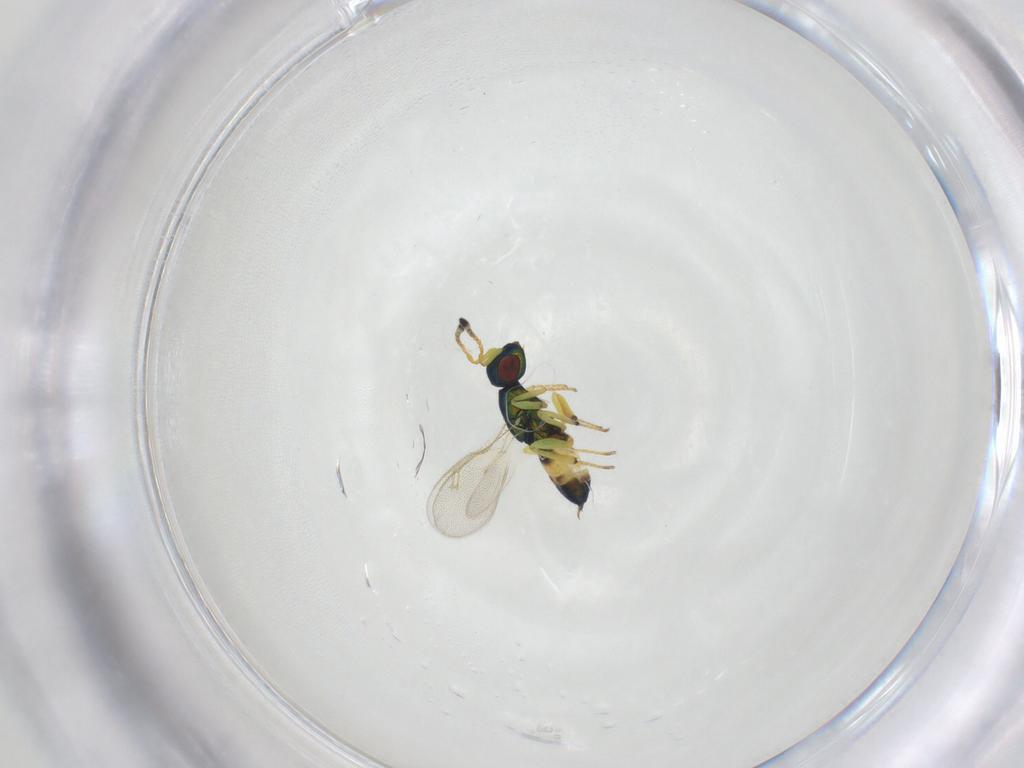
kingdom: Animalia
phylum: Arthropoda
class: Insecta
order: Hymenoptera
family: Pteromalidae
